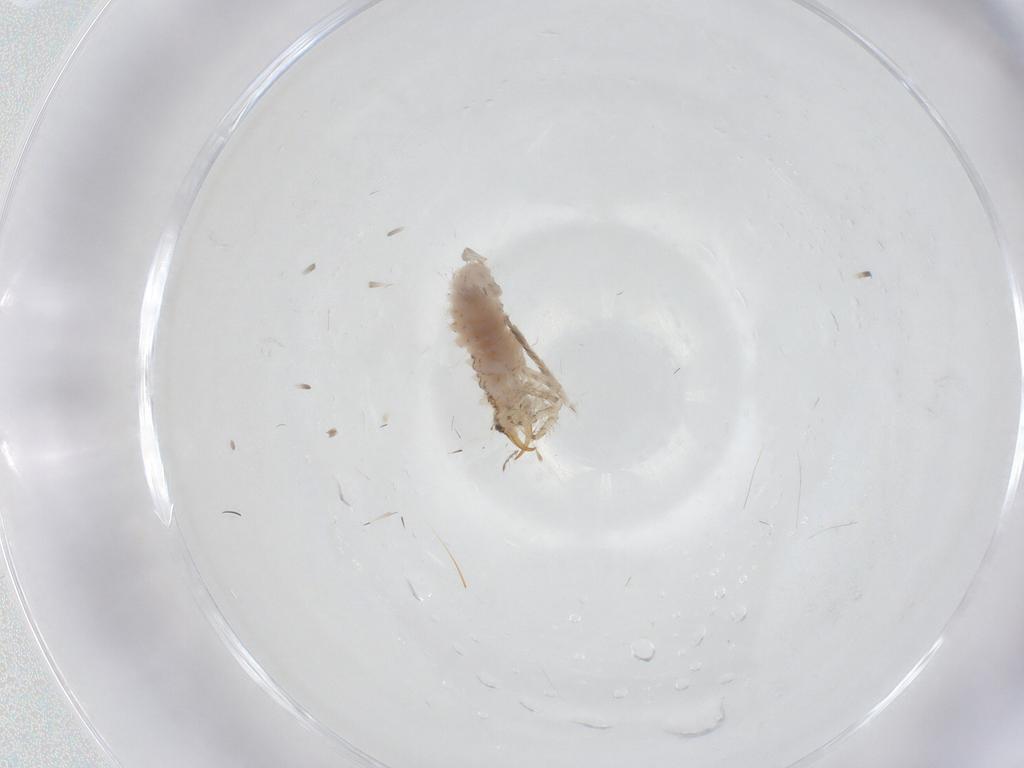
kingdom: Animalia
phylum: Arthropoda
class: Insecta
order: Neuroptera
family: Chrysopidae
